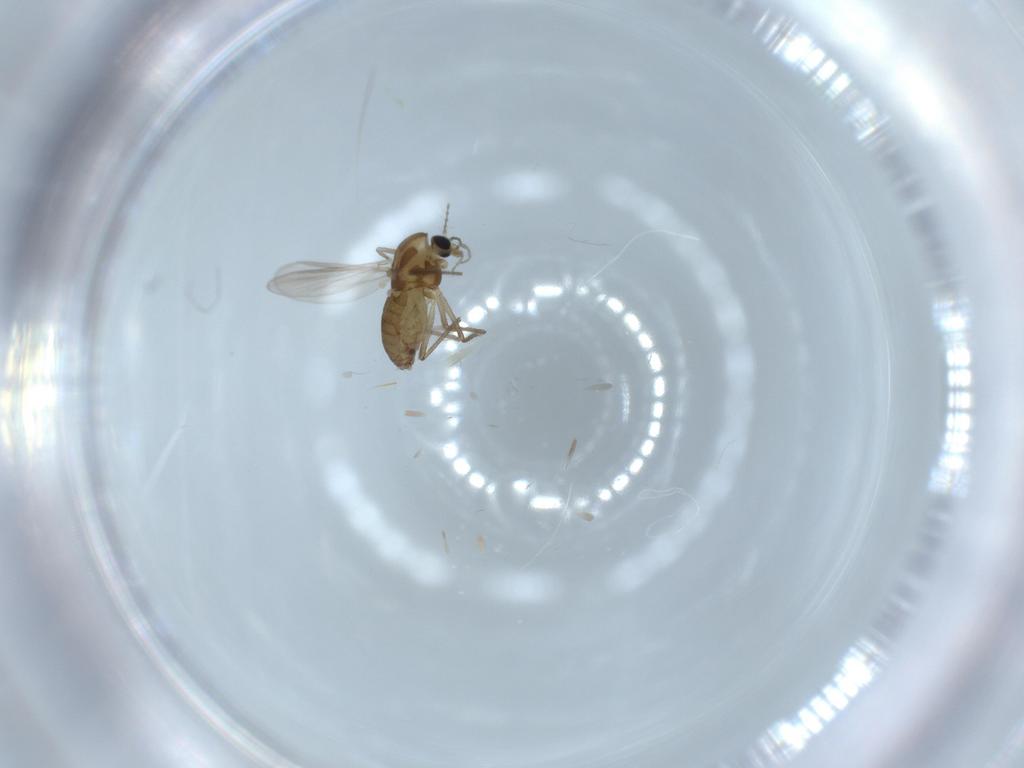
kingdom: Animalia
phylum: Arthropoda
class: Insecta
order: Diptera
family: Chironomidae
